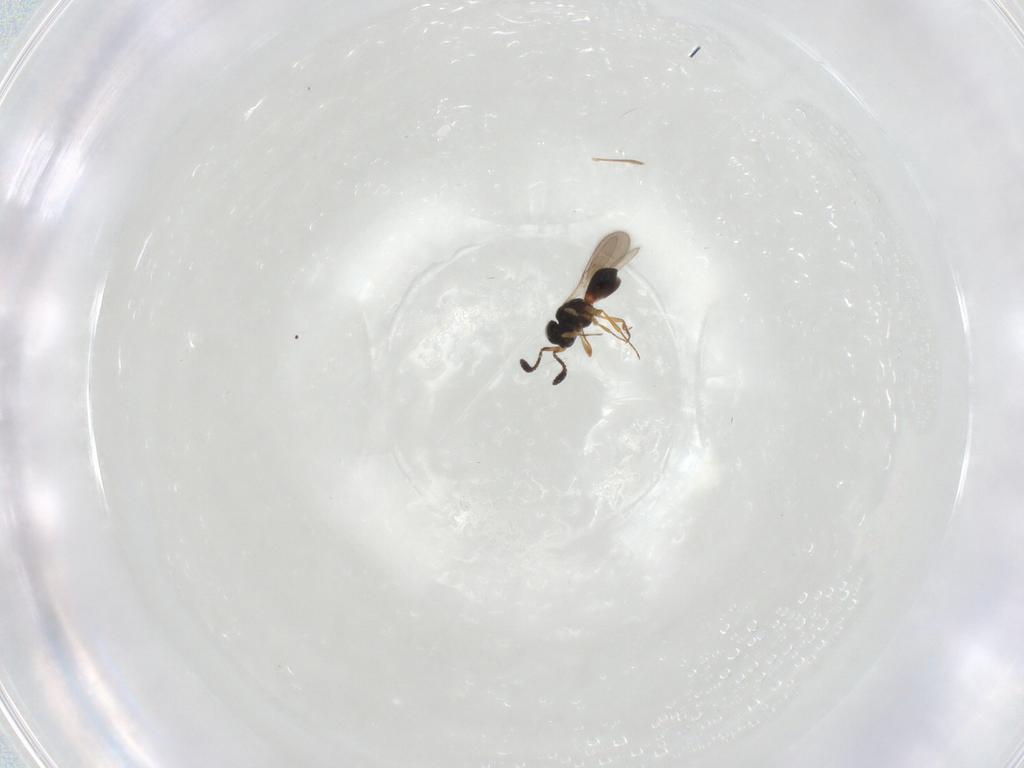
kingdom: Animalia
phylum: Arthropoda
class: Insecta
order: Hymenoptera
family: Scelionidae
